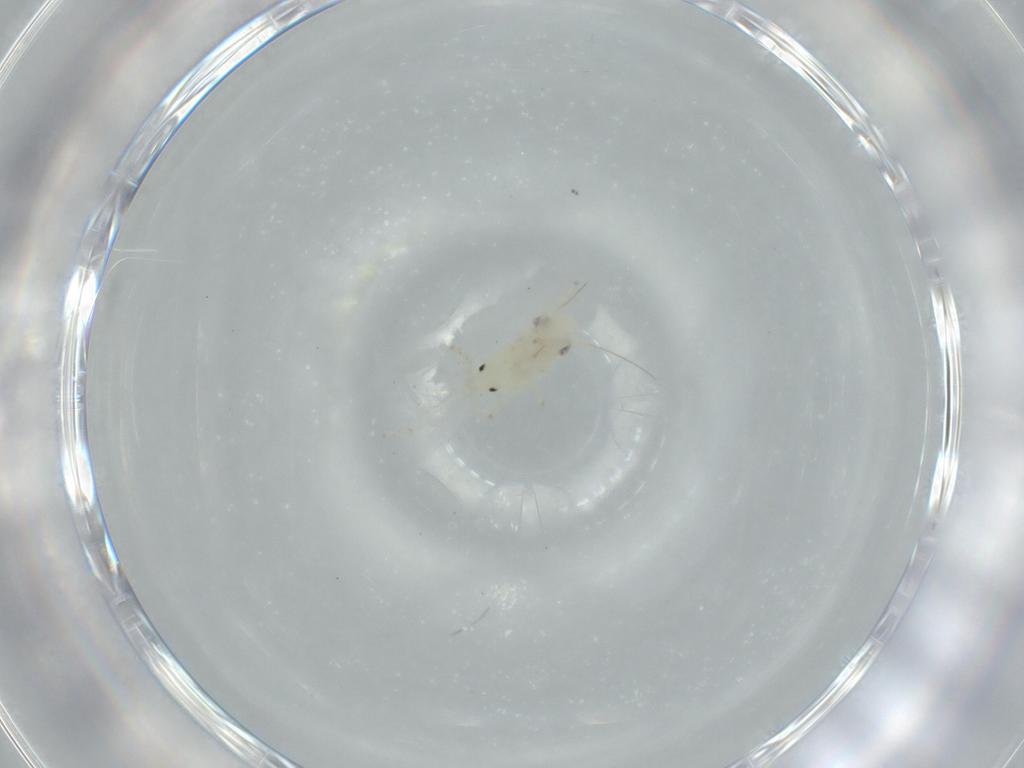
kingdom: Animalia
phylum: Arthropoda
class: Insecta
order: Hemiptera
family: Cicadellidae
